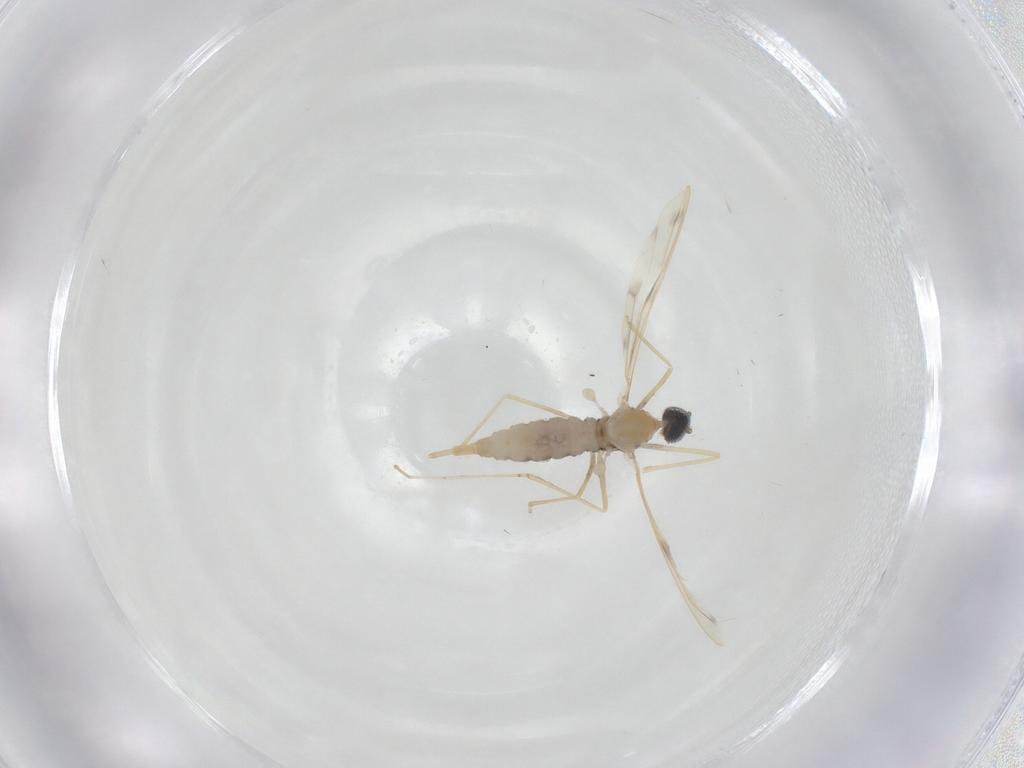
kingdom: Animalia
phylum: Arthropoda
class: Insecta
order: Diptera
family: Cecidomyiidae
